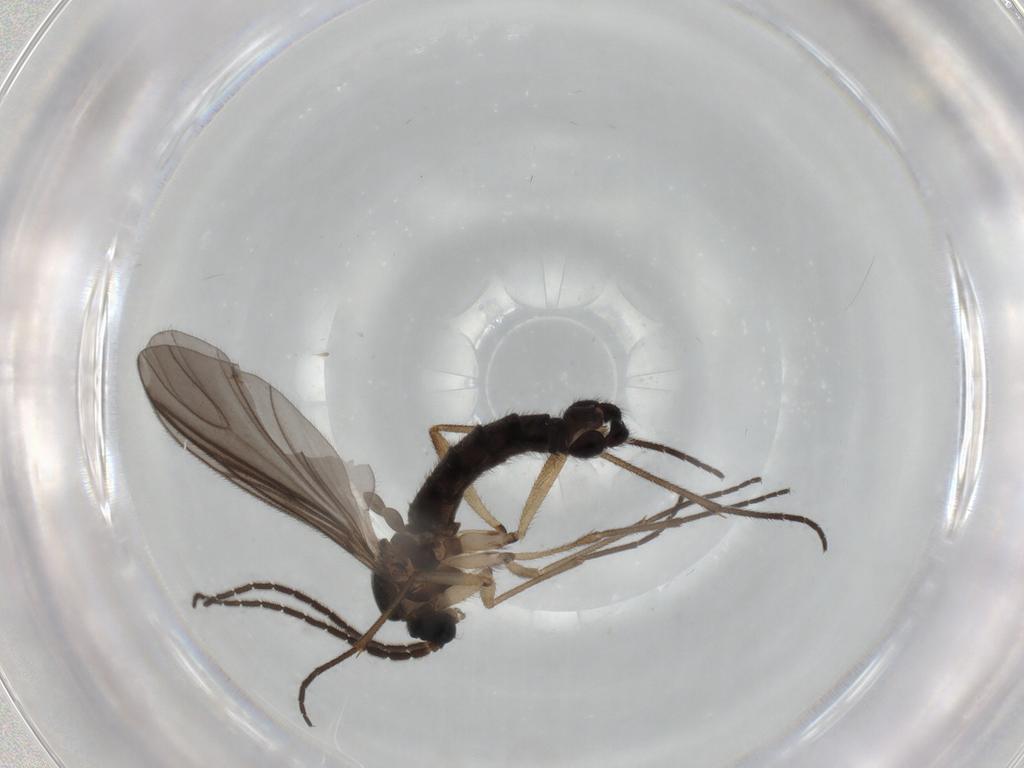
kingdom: Animalia
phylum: Arthropoda
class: Insecta
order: Diptera
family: Sciaridae
